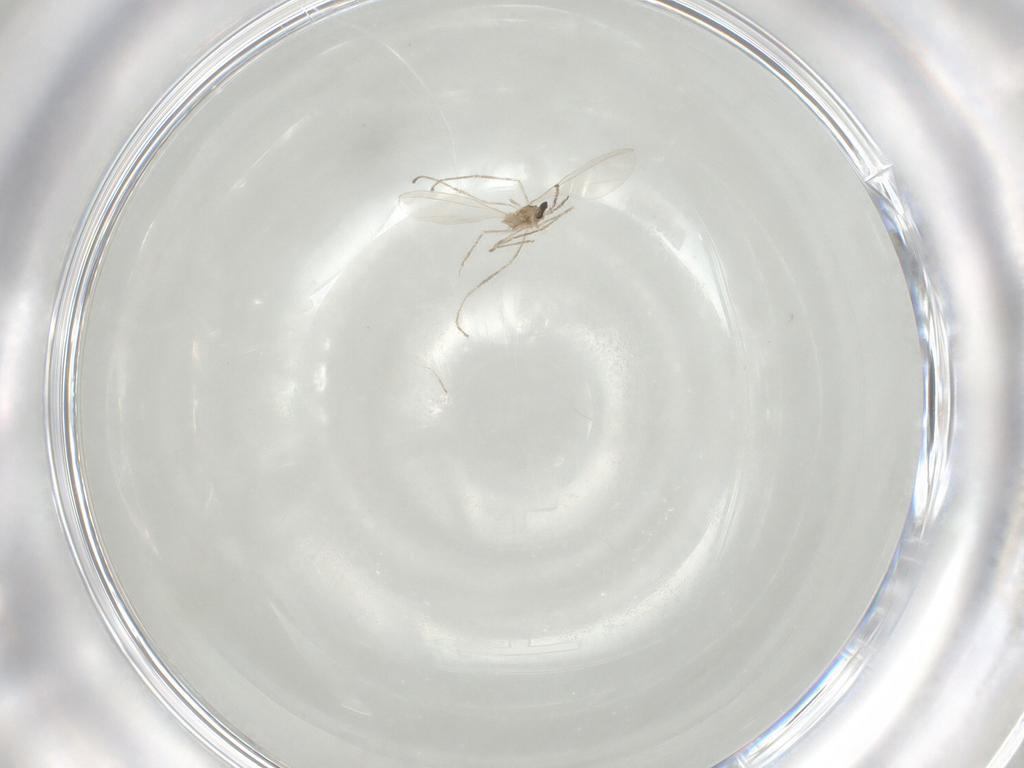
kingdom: Animalia
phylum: Arthropoda
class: Insecta
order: Diptera
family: Cecidomyiidae
